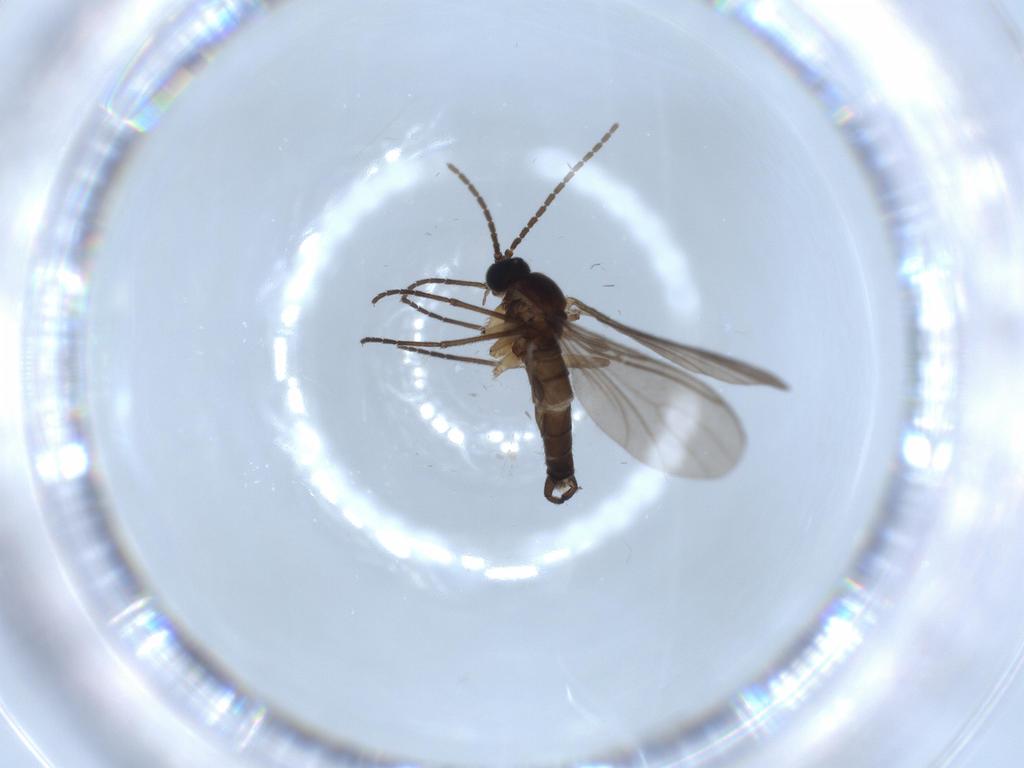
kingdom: Animalia
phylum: Arthropoda
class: Insecta
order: Diptera
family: Sciaridae
